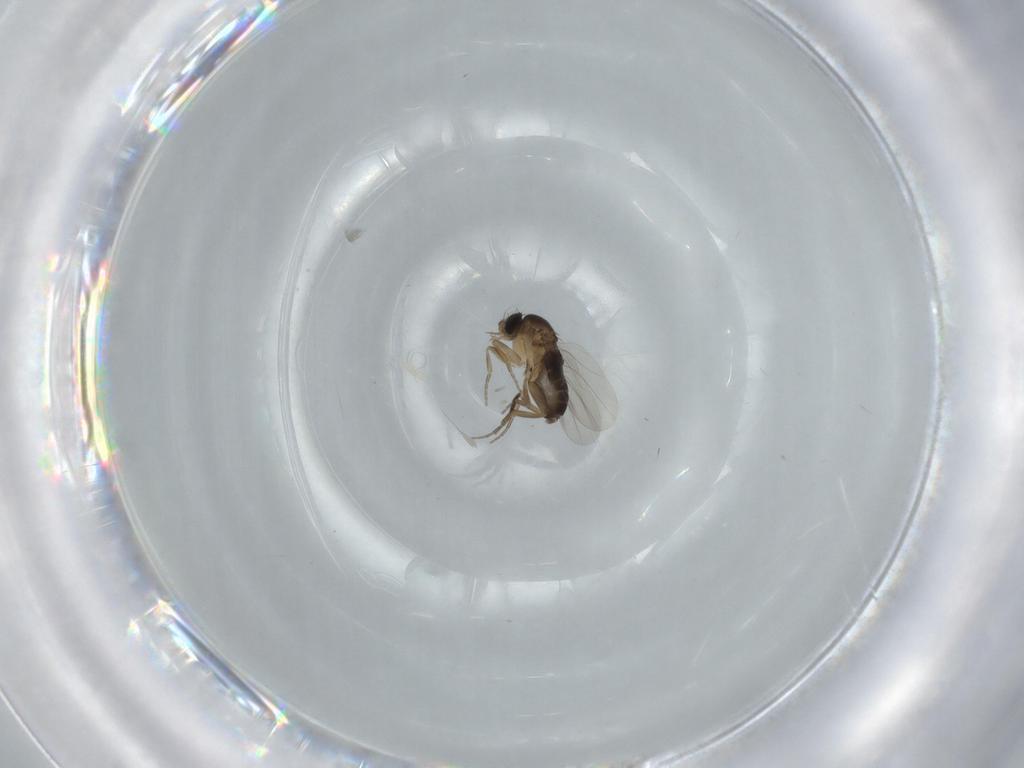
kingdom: Animalia
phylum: Arthropoda
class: Insecta
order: Diptera
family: Phoridae
